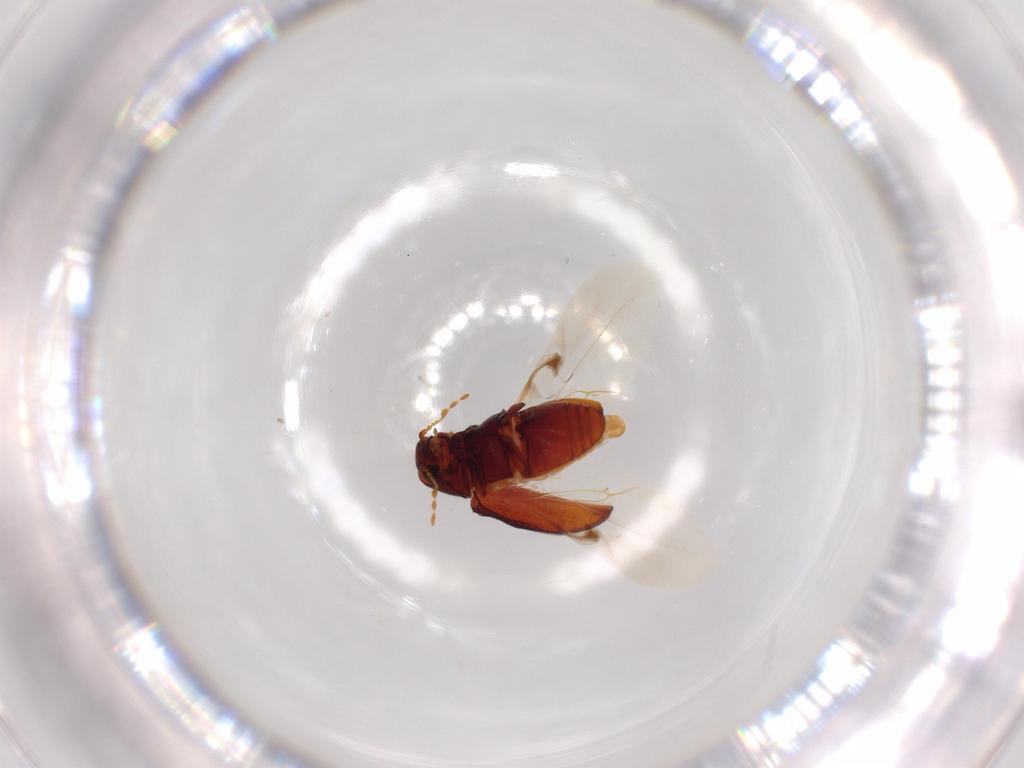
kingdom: Animalia
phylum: Arthropoda
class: Insecta
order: Coleoptera
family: Mycetophagidae
